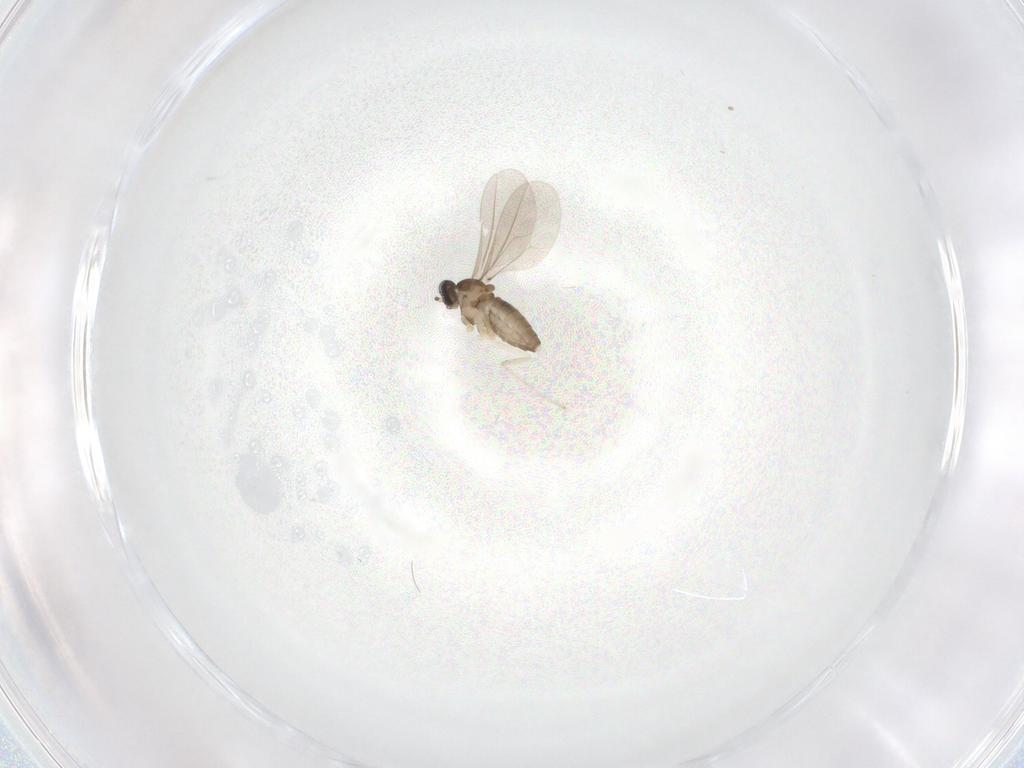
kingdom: Animalia
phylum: Arthropoda
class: Insecta
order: Diptera
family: Cecidomyiidae
